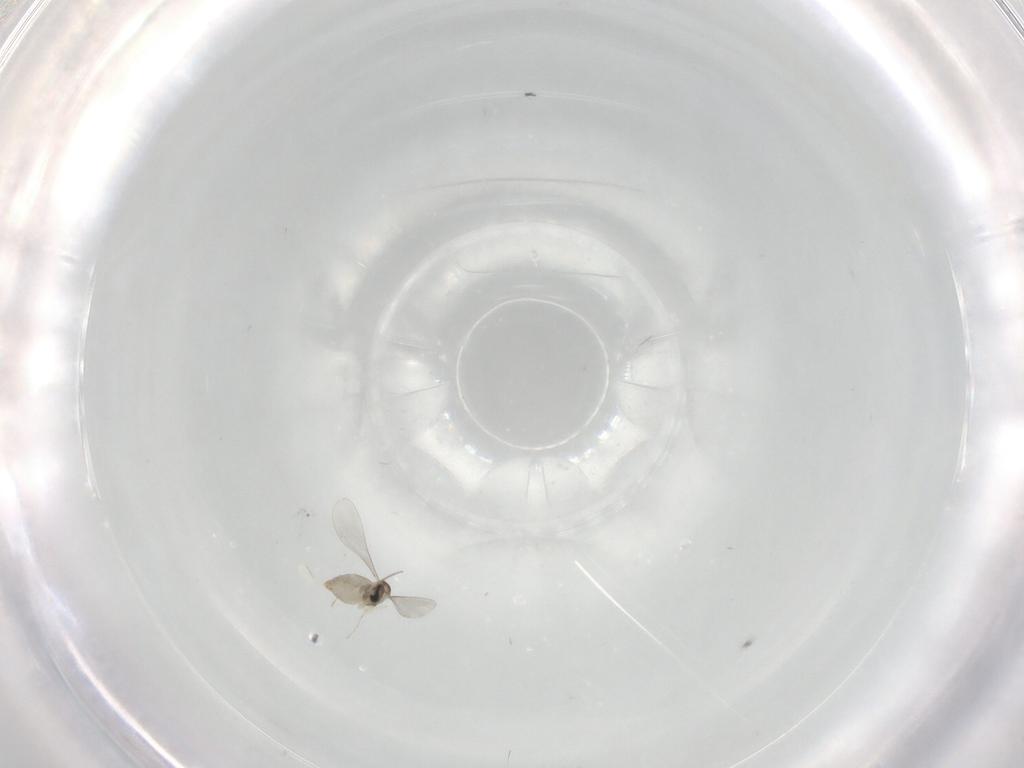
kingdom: Animalia
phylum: Arthropoda
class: Insecta
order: Diptera
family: Cecidomyiidae
